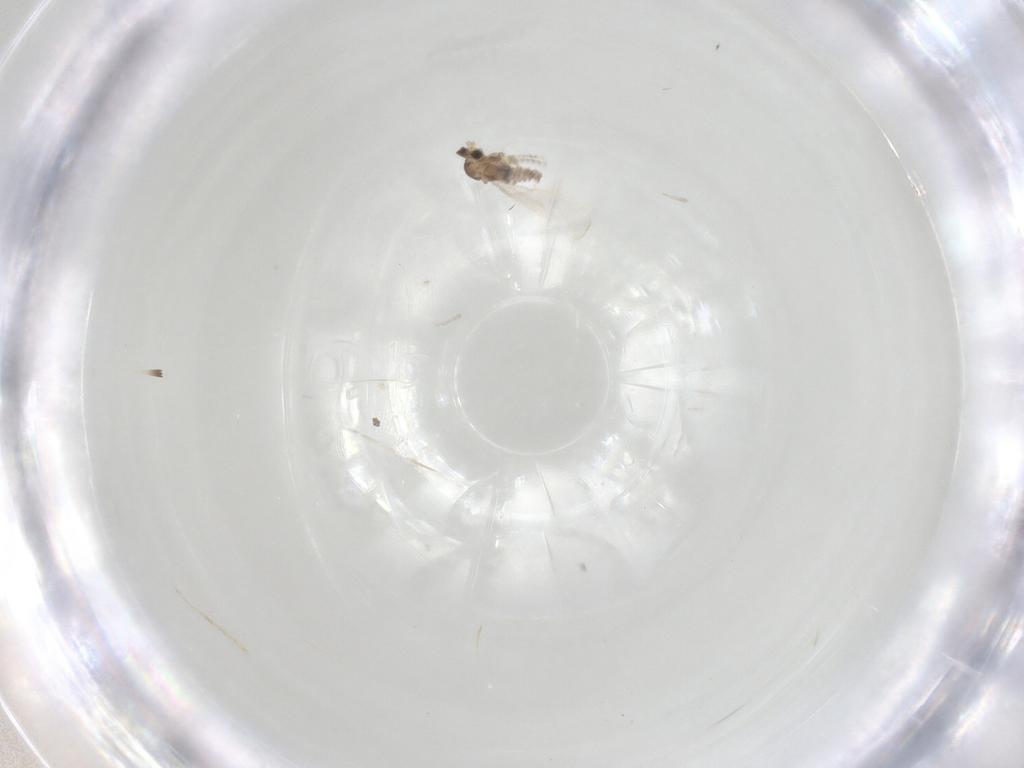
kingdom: Animalia
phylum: Arthropoda
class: Insecta
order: Diptera
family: Cecidomyiidae
